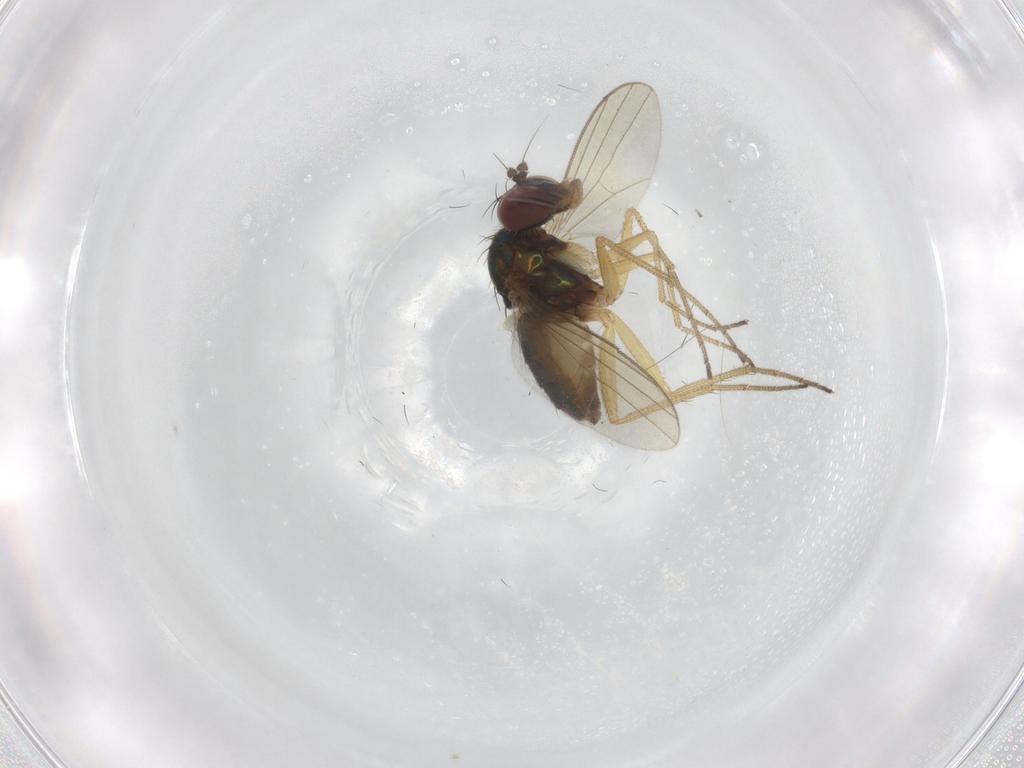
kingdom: Animalia
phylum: Arthropoda
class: Insecta
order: Diptera
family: Dolichopodidae
